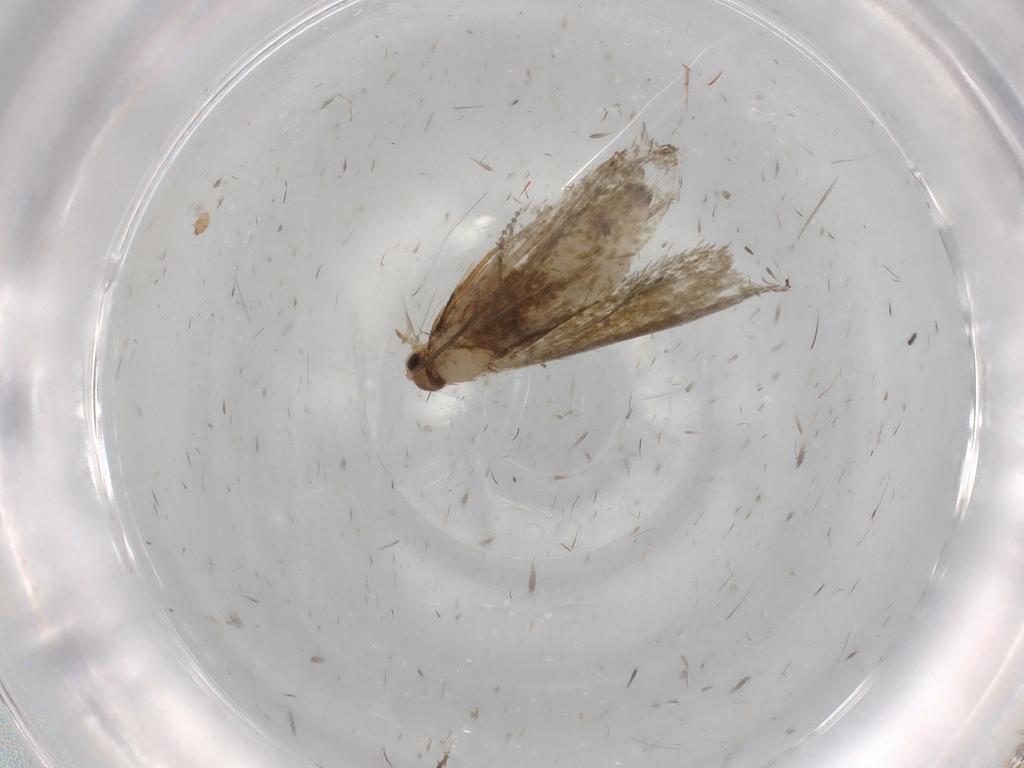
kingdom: Animalia
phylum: Arthropoda
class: Insecta
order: Lepidoptera
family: Tineidae
